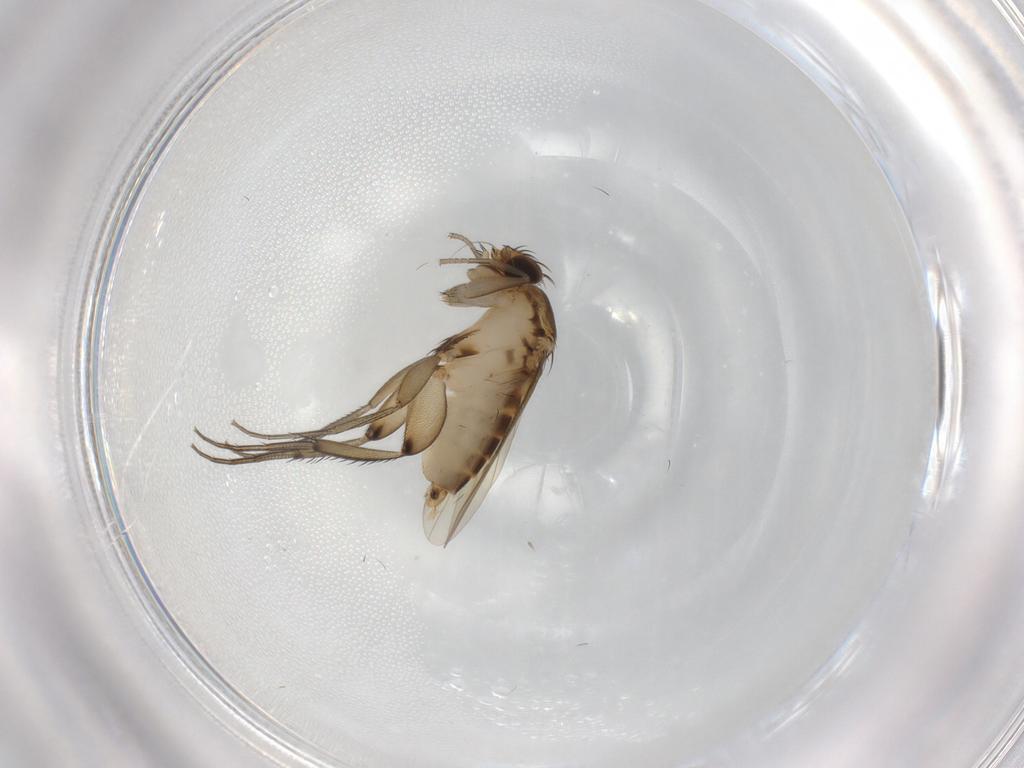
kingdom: Animalia
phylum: Arthropoda
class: Insecta
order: Diptera
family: Phoridae
